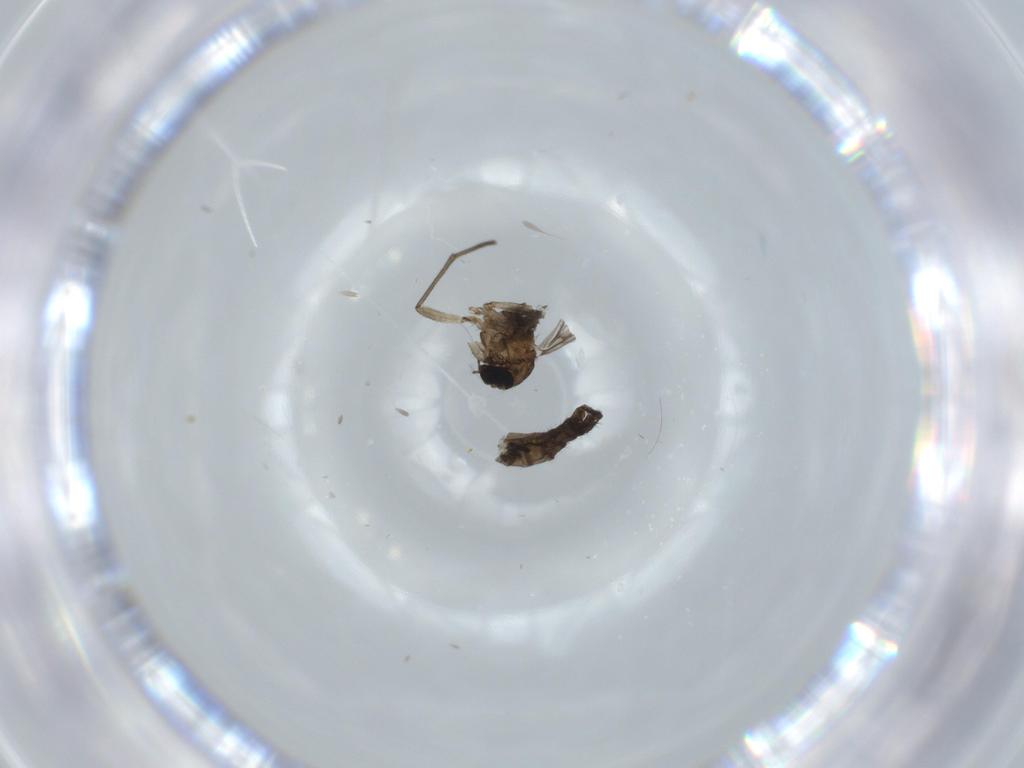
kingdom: Animalia
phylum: Arthropoda
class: Insecta
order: Diptera
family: Sciaridae
